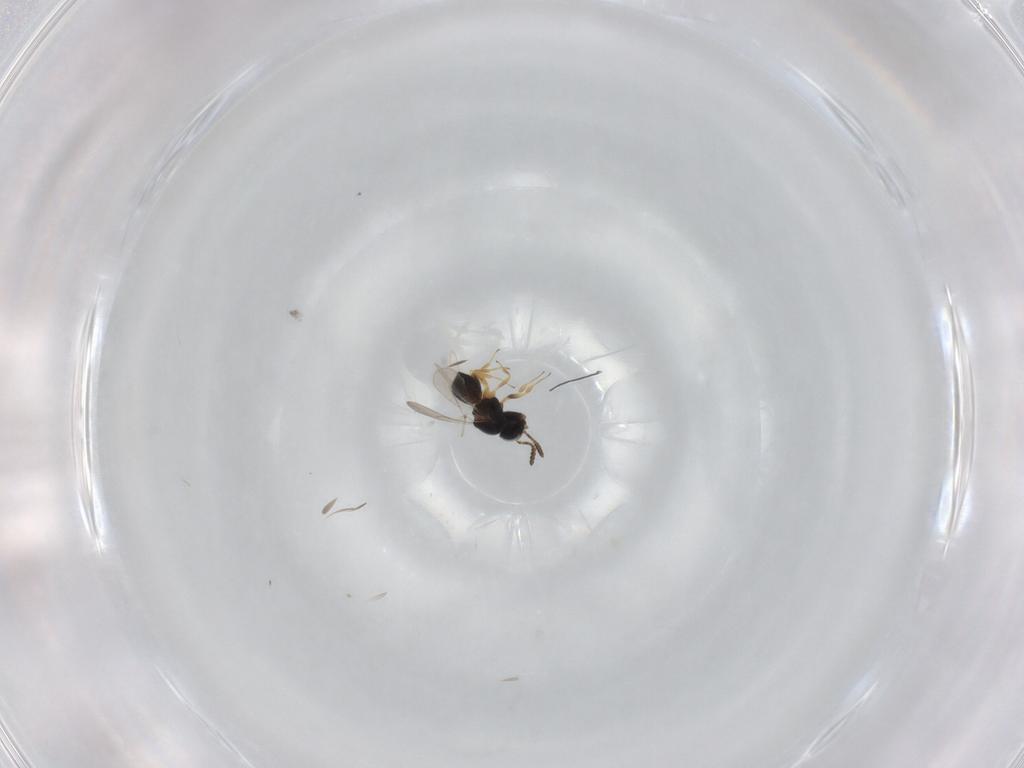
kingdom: Animalia
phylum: Arthropoda
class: Insecta
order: Hymenoptera
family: Scelionidae
